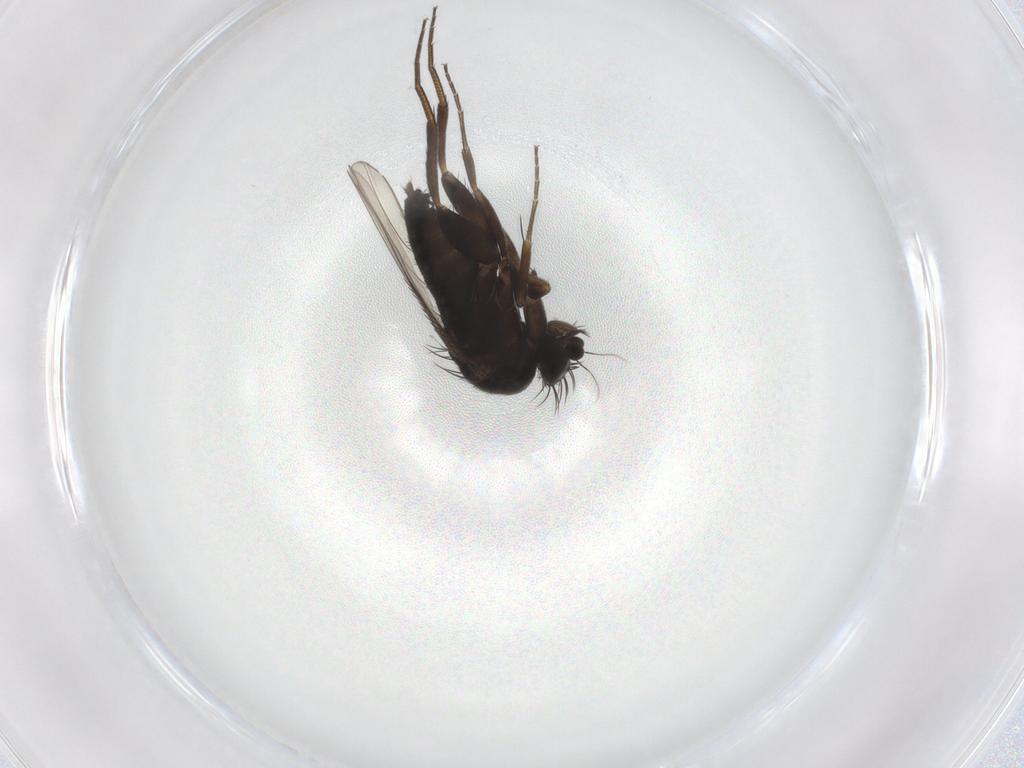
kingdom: Animalia
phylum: Arthropoda
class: Insecta
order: Diptera
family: Phoridae
